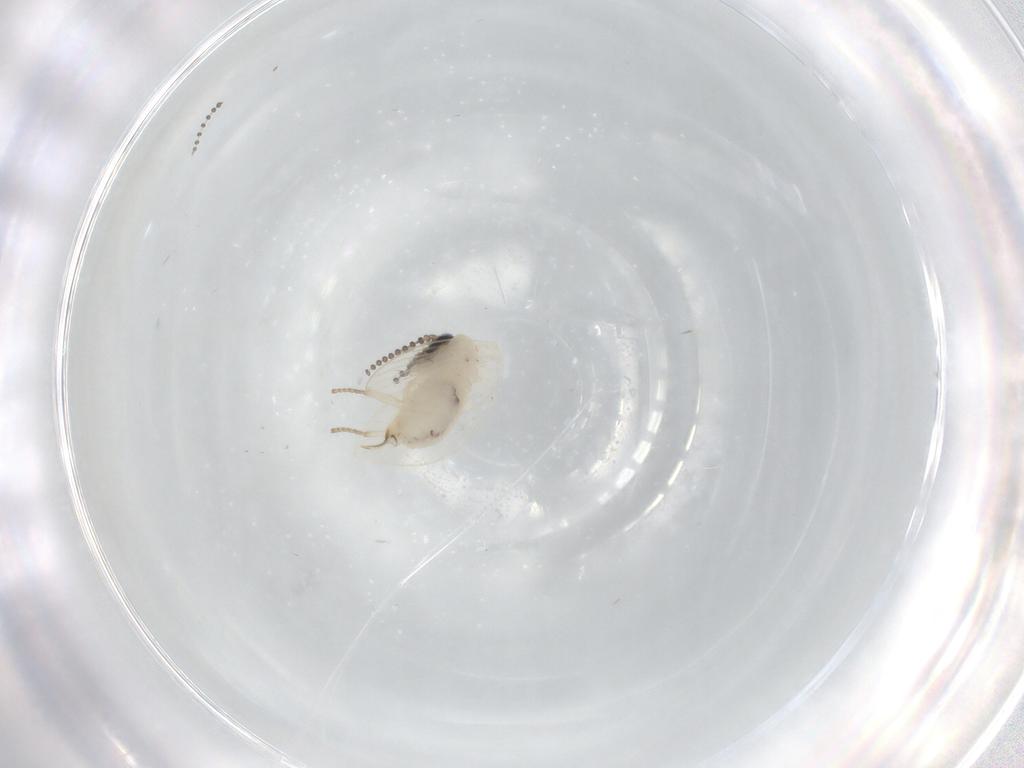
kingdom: Animalia
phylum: Arthropoda
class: Insecta
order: Diptera
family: Psychodidae
